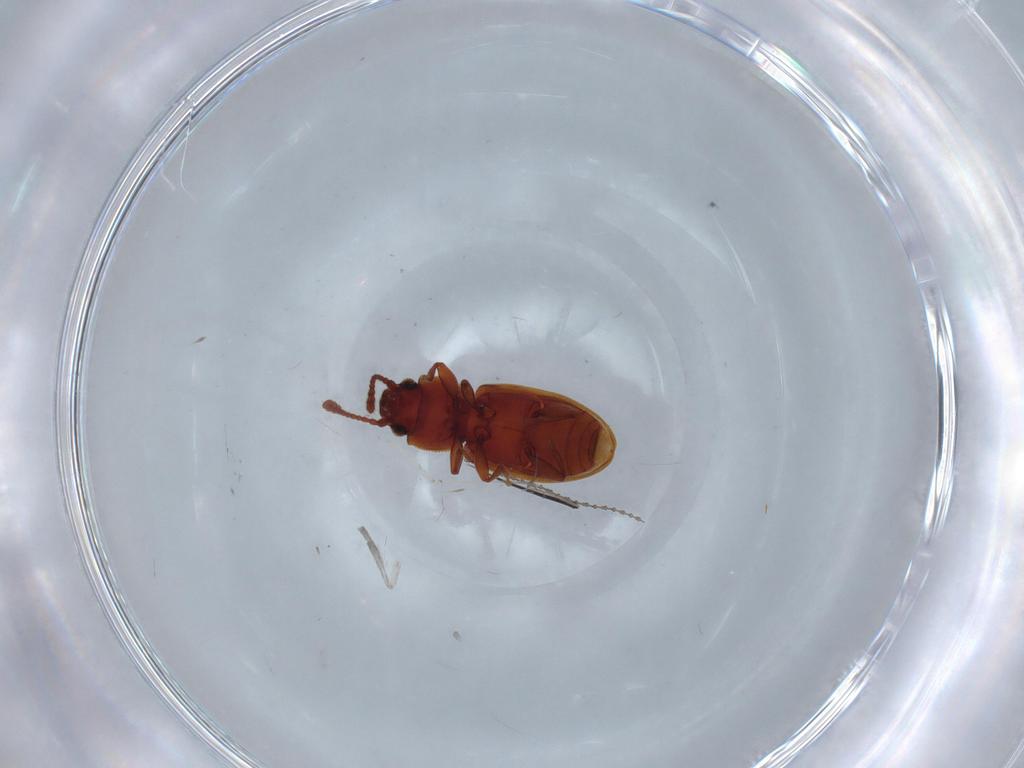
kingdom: Animalia
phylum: Arthropoda
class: Insecta
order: Coleoptera
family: Silvanidae
